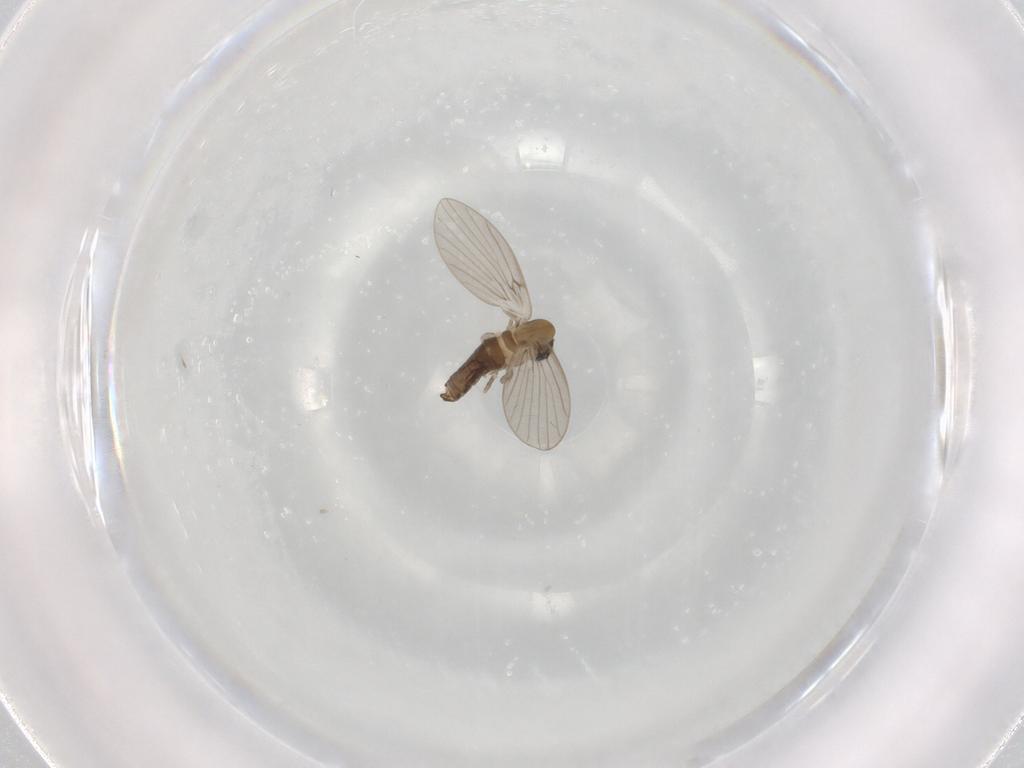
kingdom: Animalia
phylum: Arthropoda
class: Insecta
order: Diptera
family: Psychodidae
